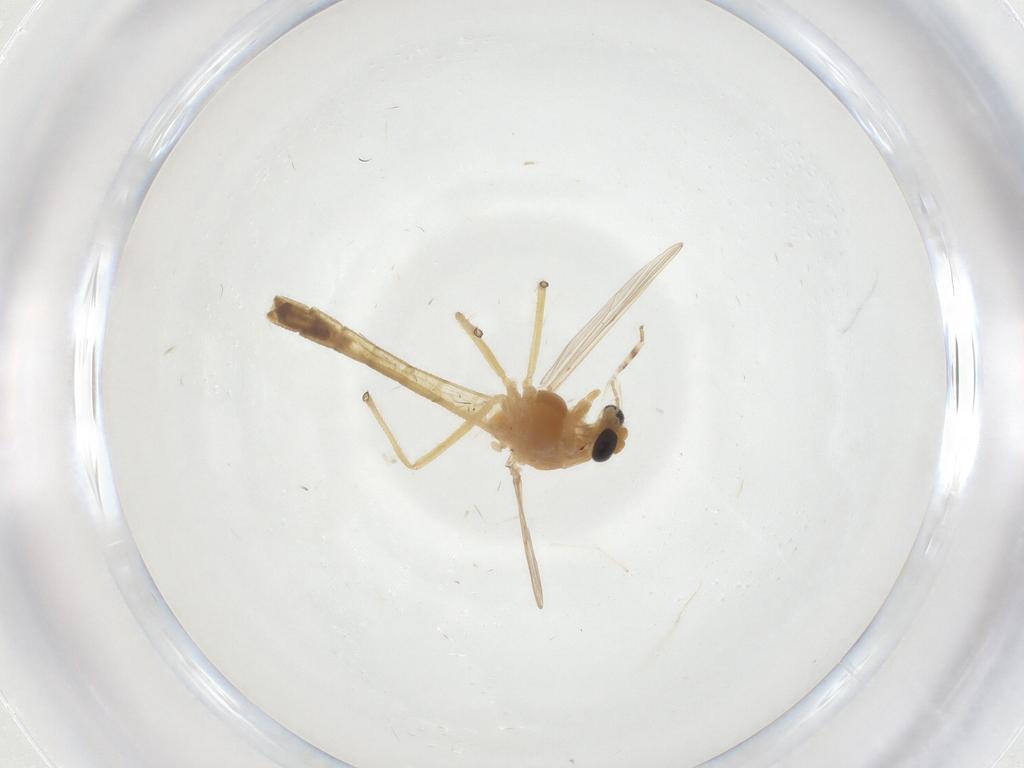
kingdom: Animalia
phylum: Arthropoda
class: Insecta
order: Diptera
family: Chironomidae
